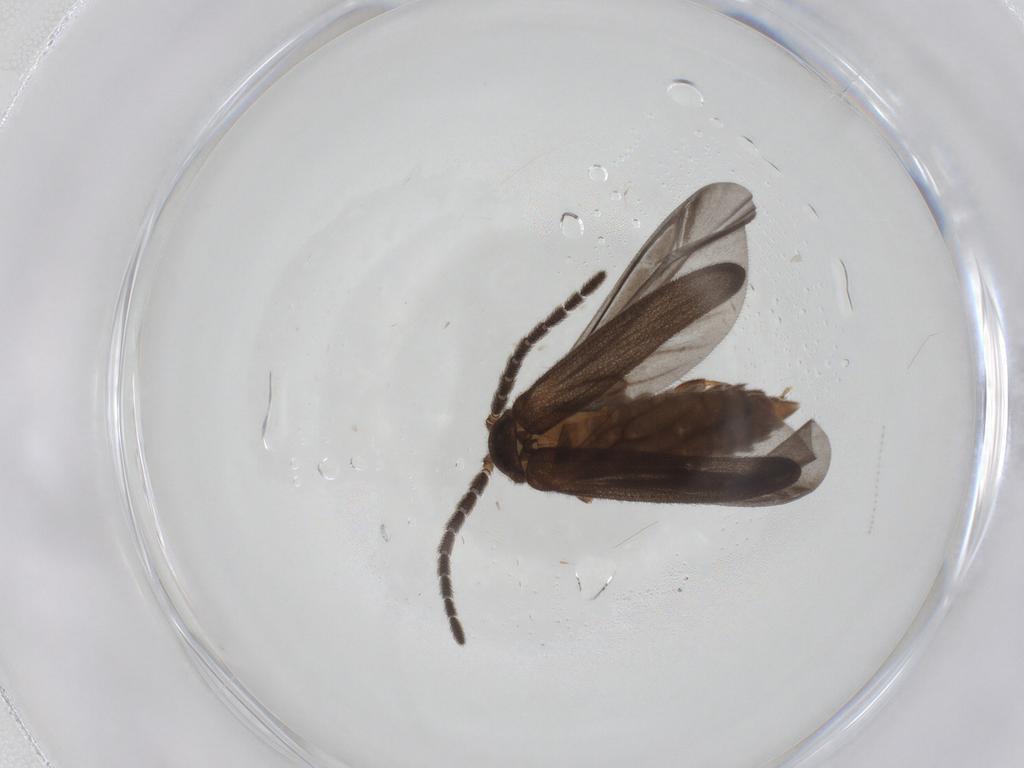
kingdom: Animalia
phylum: Arthropoda
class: Insecta
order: Coleoptera
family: Lycidae
